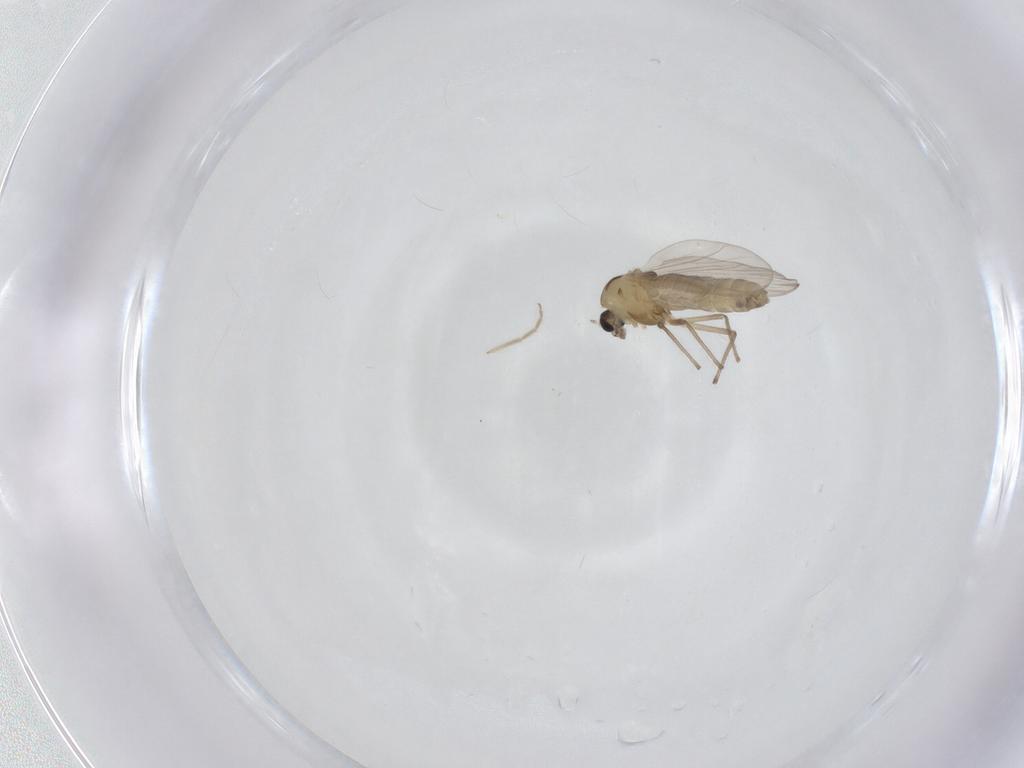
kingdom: Animalia
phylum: Arthropoda
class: Insecta
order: Diptera
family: Chironomidae
